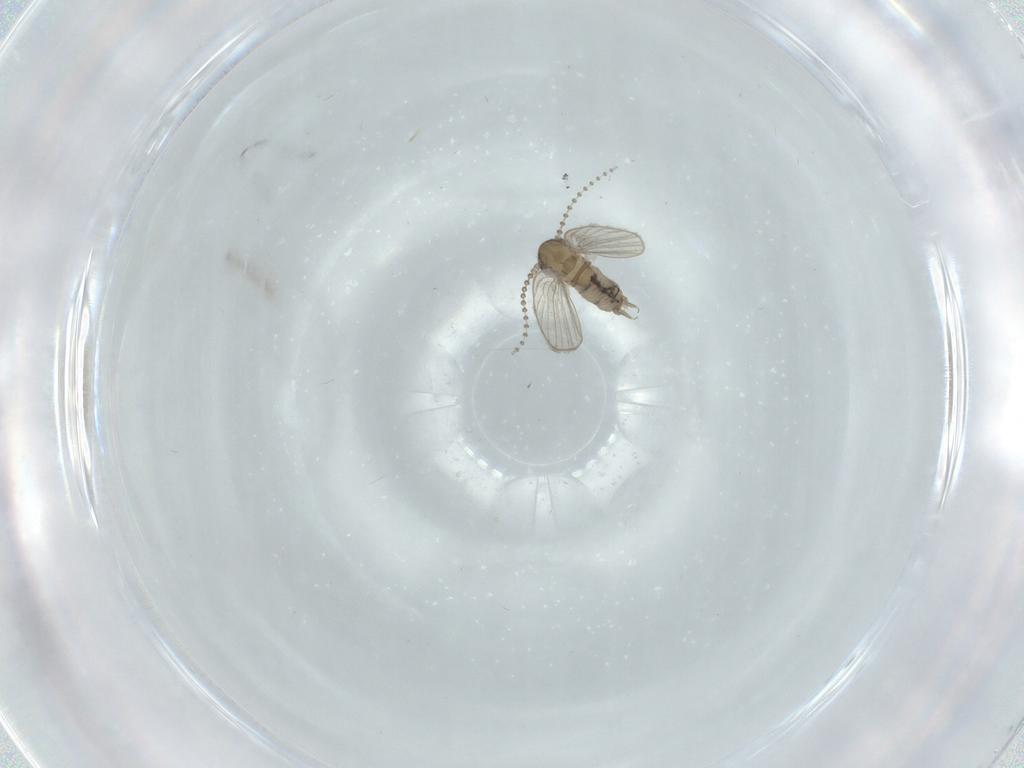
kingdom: Animalia
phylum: Arthropoda
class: Insecta
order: Diptera
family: Psychodidae
